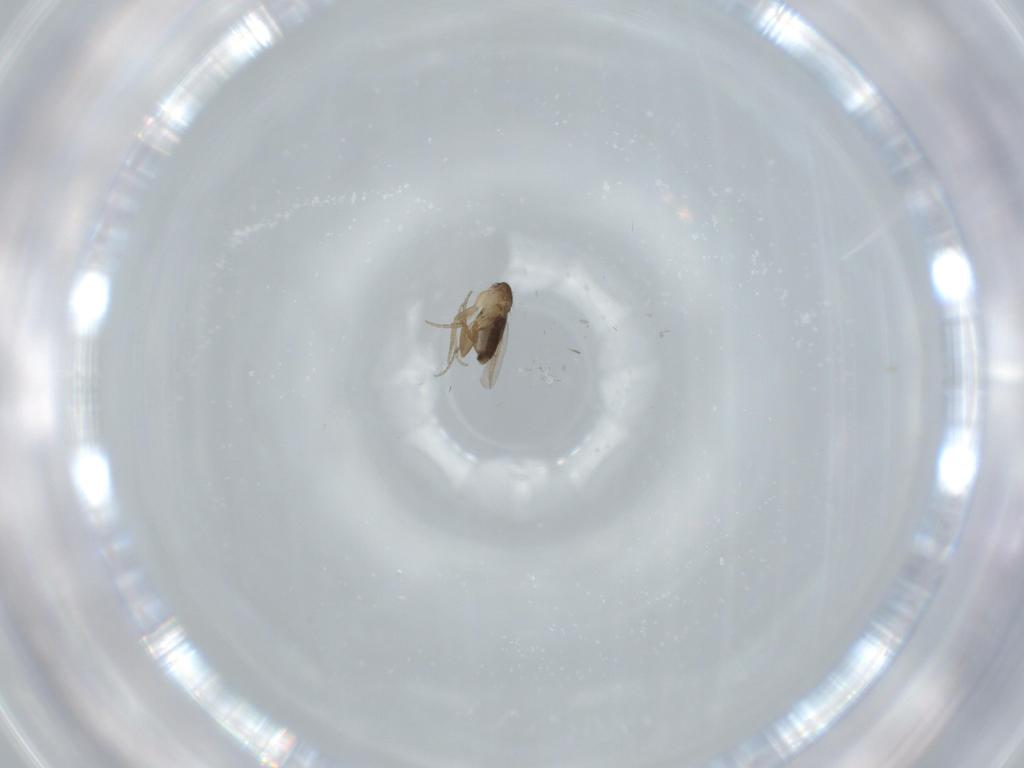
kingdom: Animalia
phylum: Arthropoda
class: Insecta
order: Diptera
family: Phoridae
